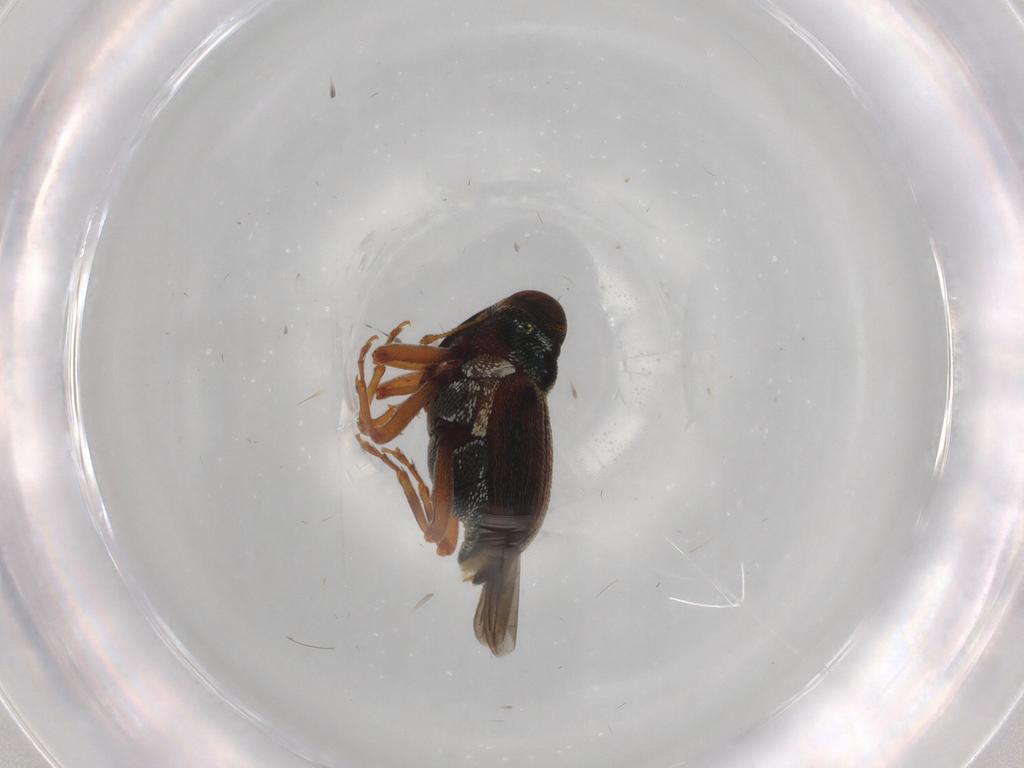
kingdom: Animalia
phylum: Arthropoda
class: Insecta
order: Coleoptera
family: Curculionidae
